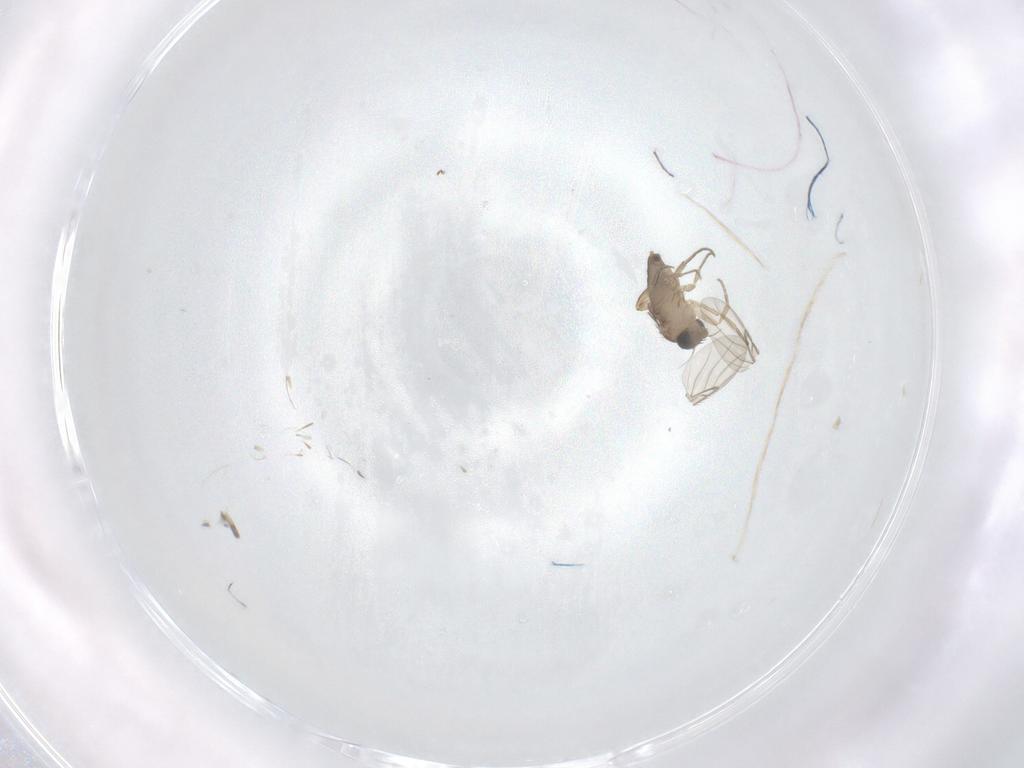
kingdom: Animalia
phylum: Arthropoda
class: Insecta
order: Diptera
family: Phoridae
